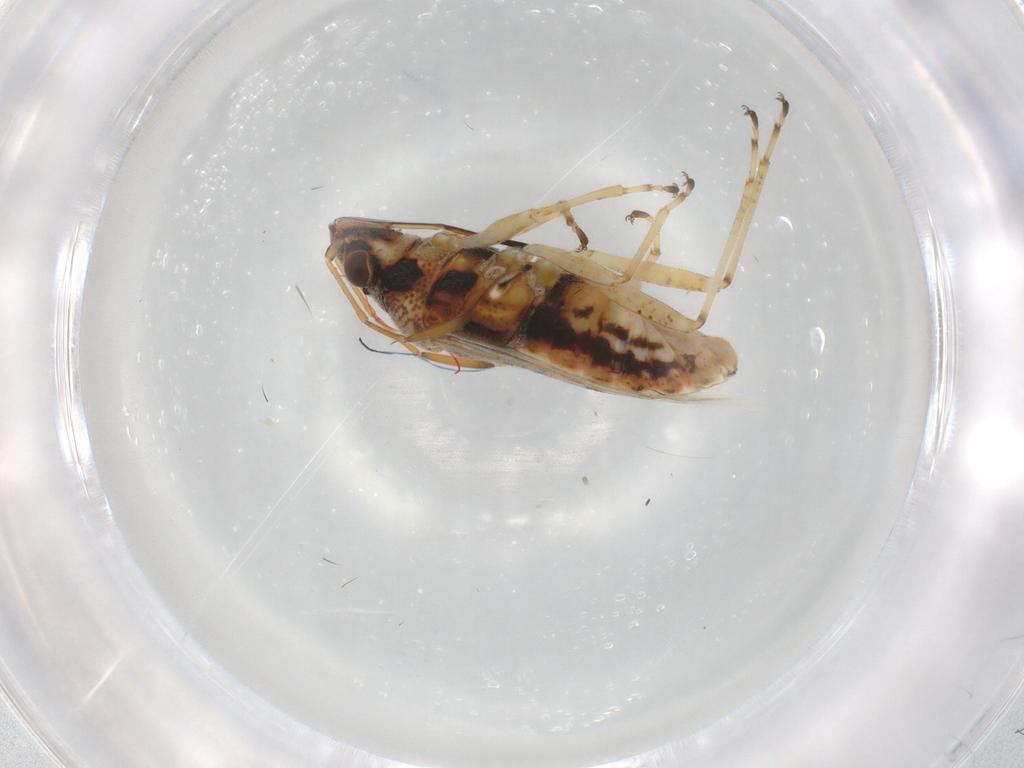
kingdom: Animalia
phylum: Arthropoda
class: Insecta
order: Hemiptera
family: Lygaeidae
